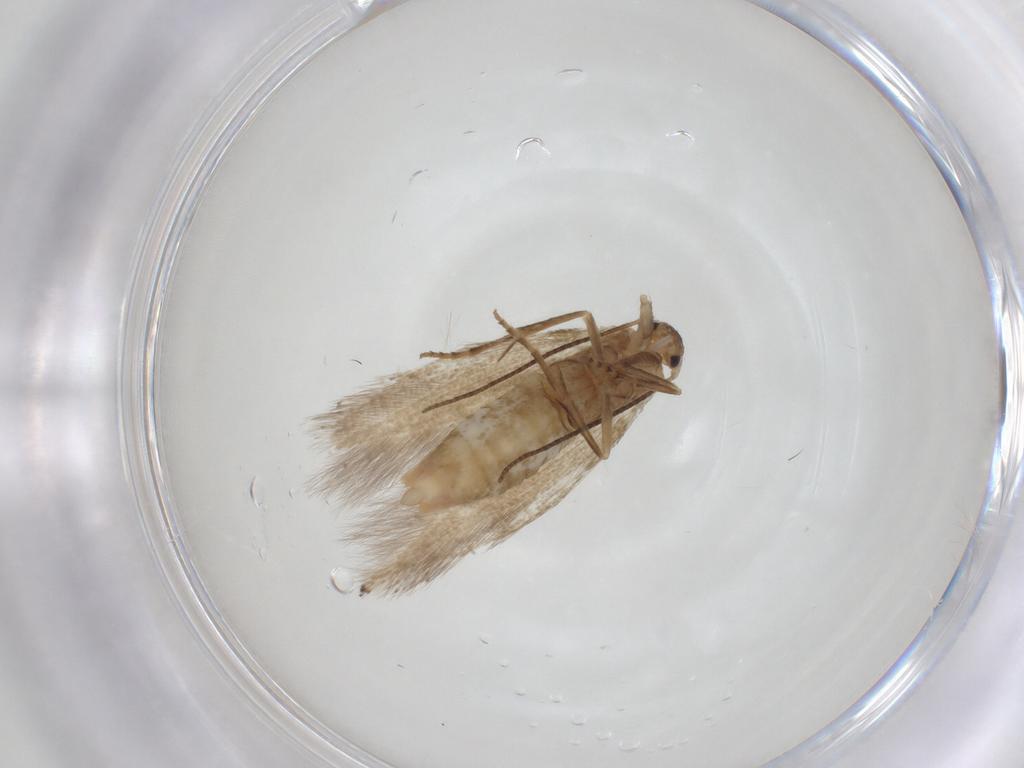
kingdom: Animalia
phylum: Arthropoda
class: Insecta
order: Lepidoptera
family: Bucculatricidae
